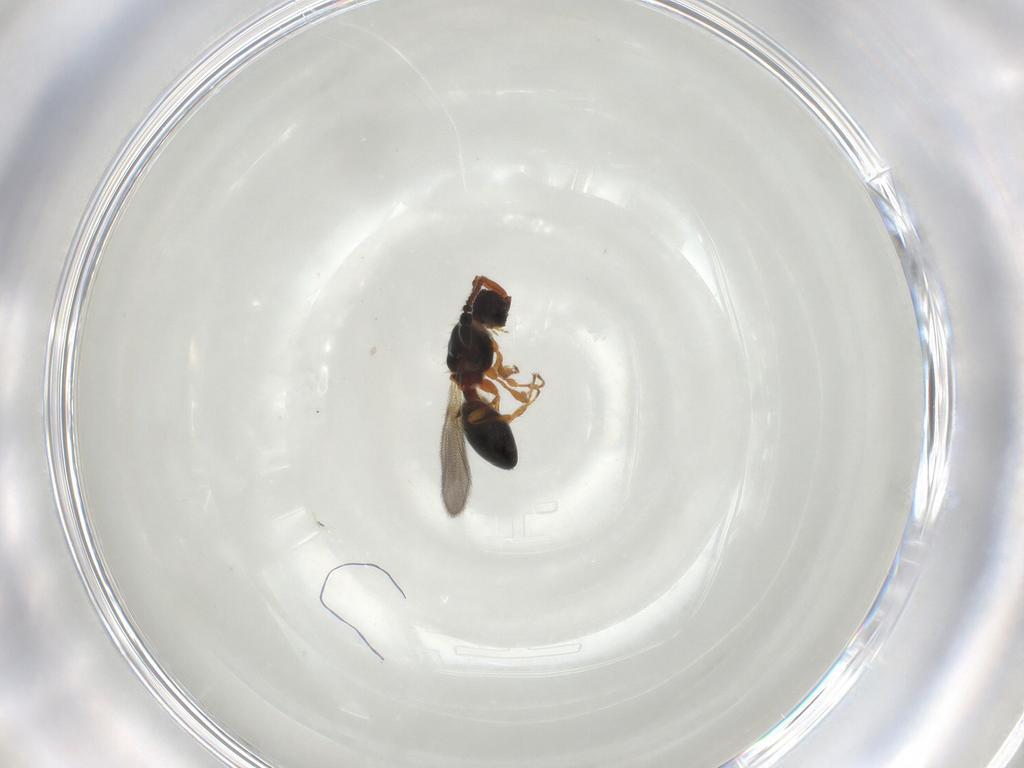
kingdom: Animalia
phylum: Arthropoda
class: Insecta
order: Hymenoptera
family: Diapriidae
